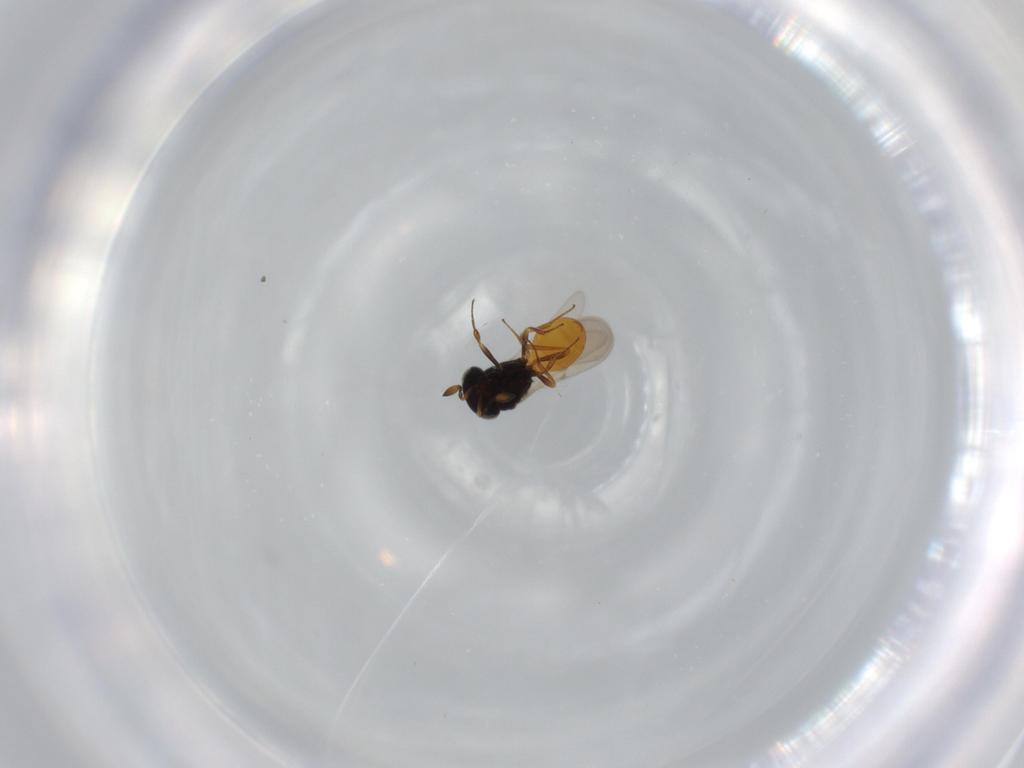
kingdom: Animalia
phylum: Arthropoda
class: Insecta
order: Hymenoptera
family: Scelionidae
